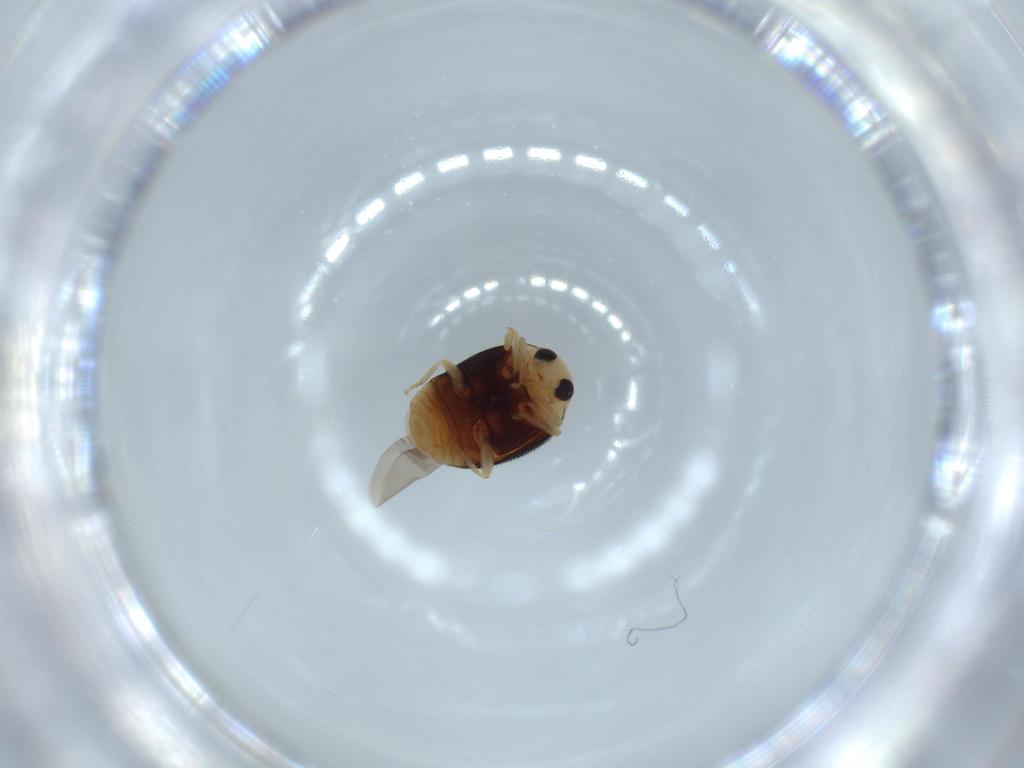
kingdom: Animalia
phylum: Arthropoda
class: Insecta
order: Coleoptera
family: Coccinellidae
